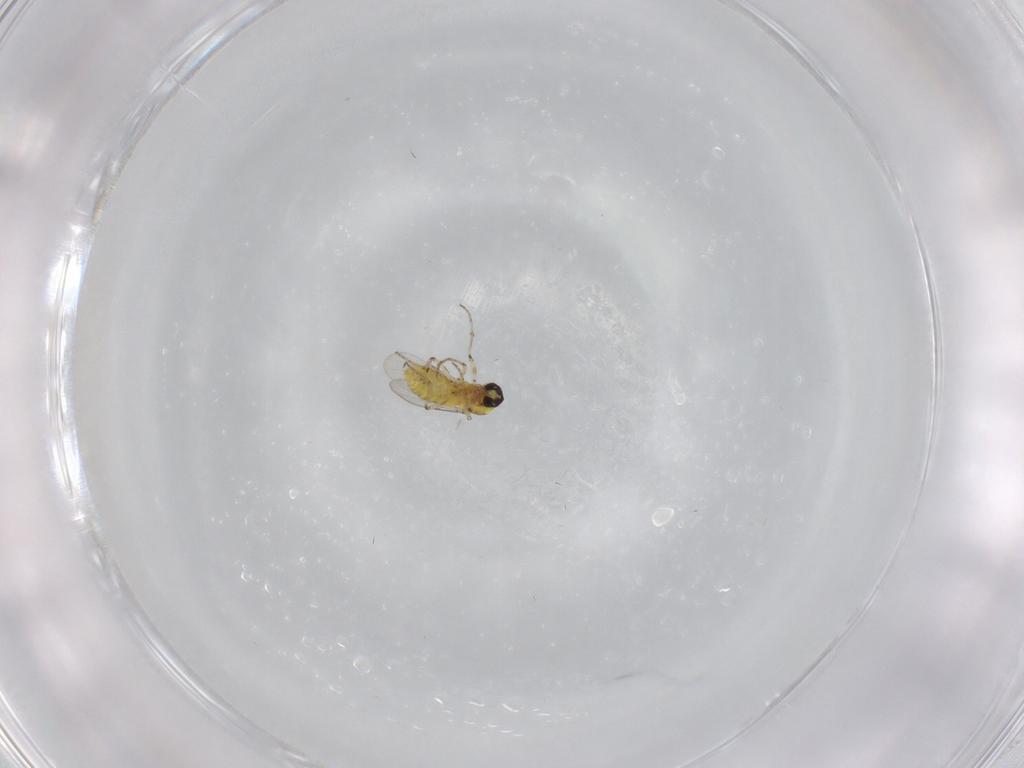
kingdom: Animalia
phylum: Arthropoda
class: Insecta
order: Diptera
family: Ceratopogonidae
